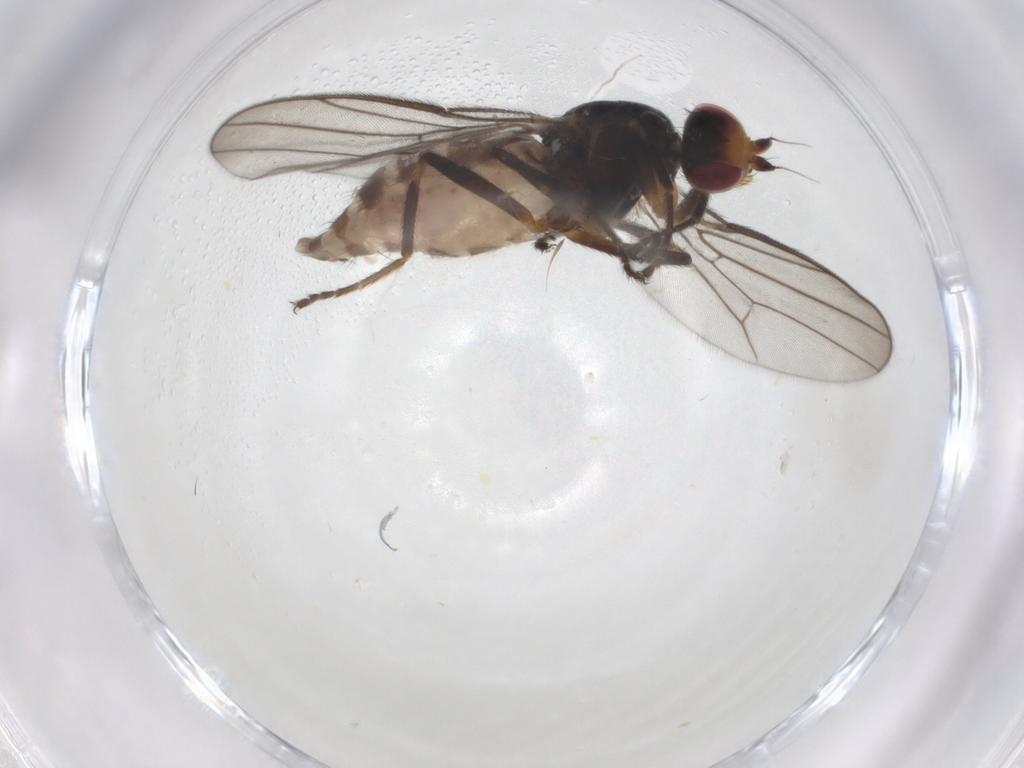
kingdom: Animalia
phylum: Arthropoda
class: Insecta
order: Diptera
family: Chloropidae
